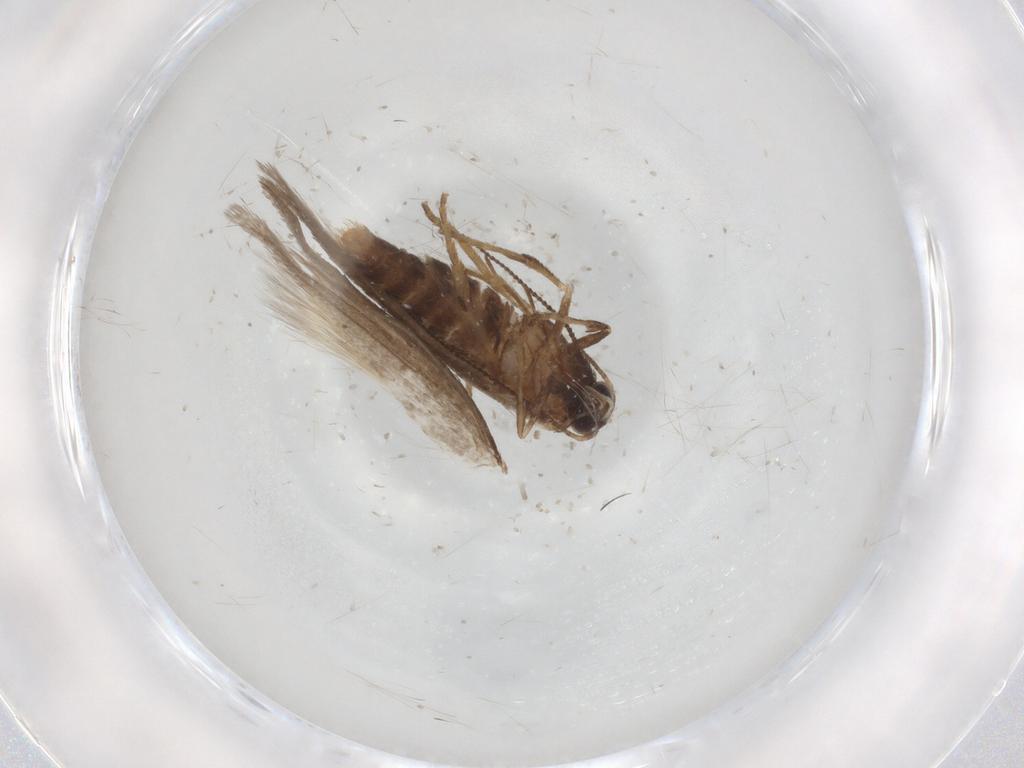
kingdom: Animalia
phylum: Arthropoda
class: Insecta
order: Lepidoptera
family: Nepticulidae
